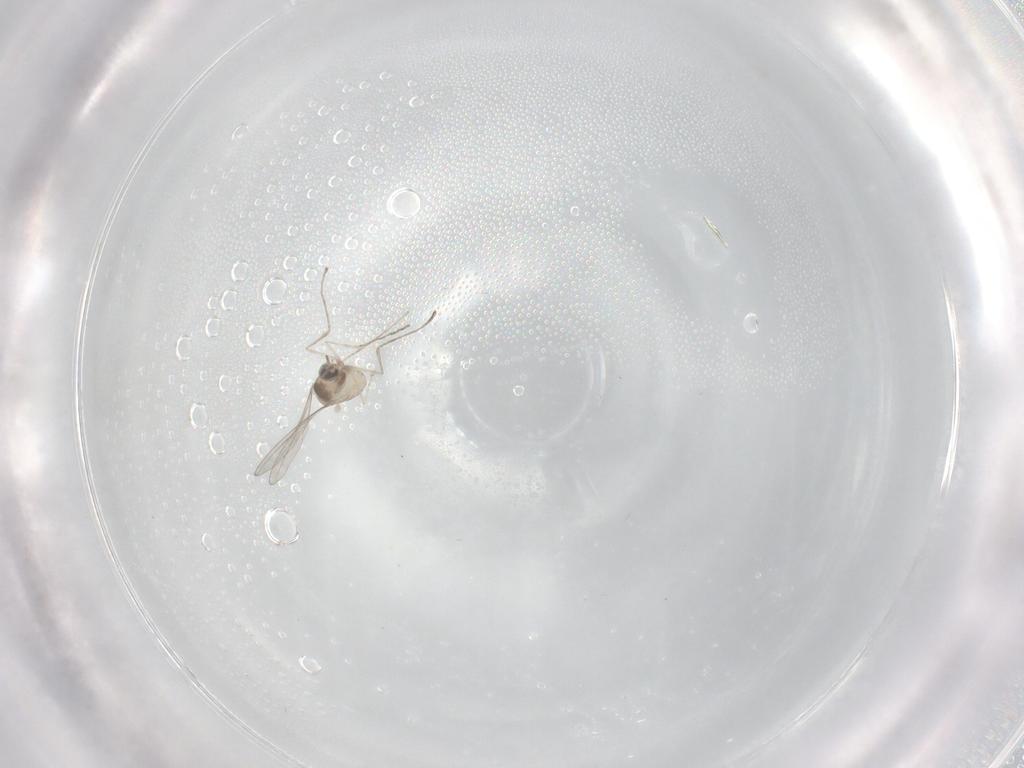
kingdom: Animalia
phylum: Arthropoda
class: Insecta
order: Diptera
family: Cecidomyiidae
